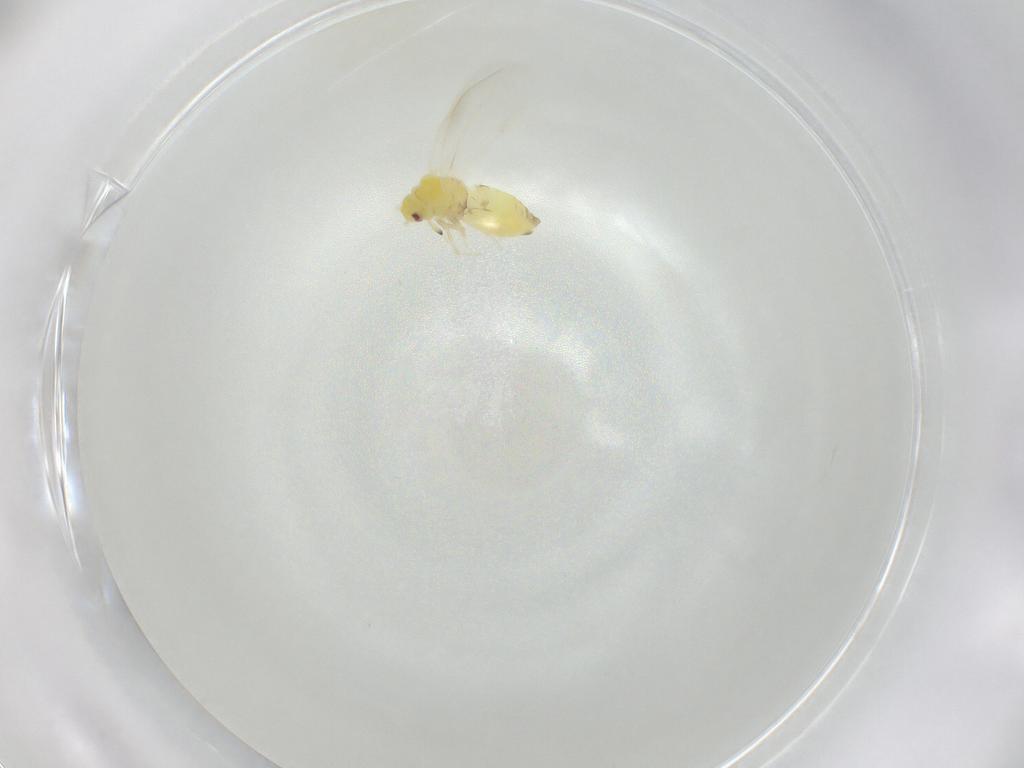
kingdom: Animalia
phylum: Arthropoda
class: Insecta
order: Hemiptera
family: Aleyrodidae
